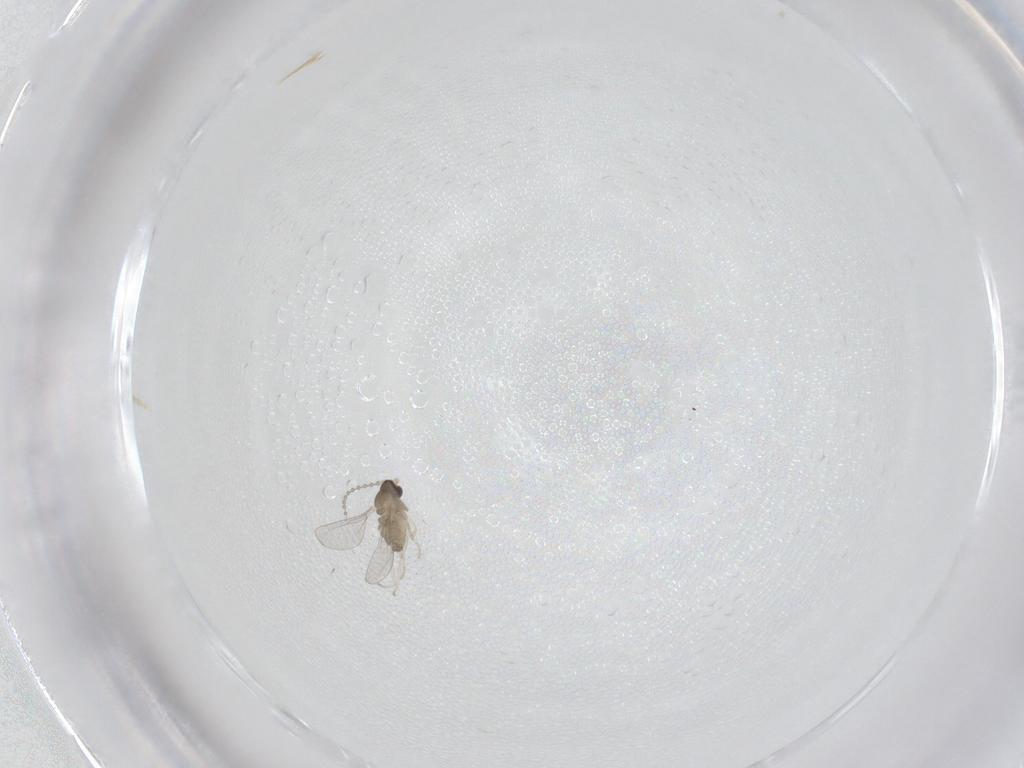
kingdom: Animalia
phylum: Arthropoda
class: Insecta
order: Diptera
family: Cecidomyiidae
